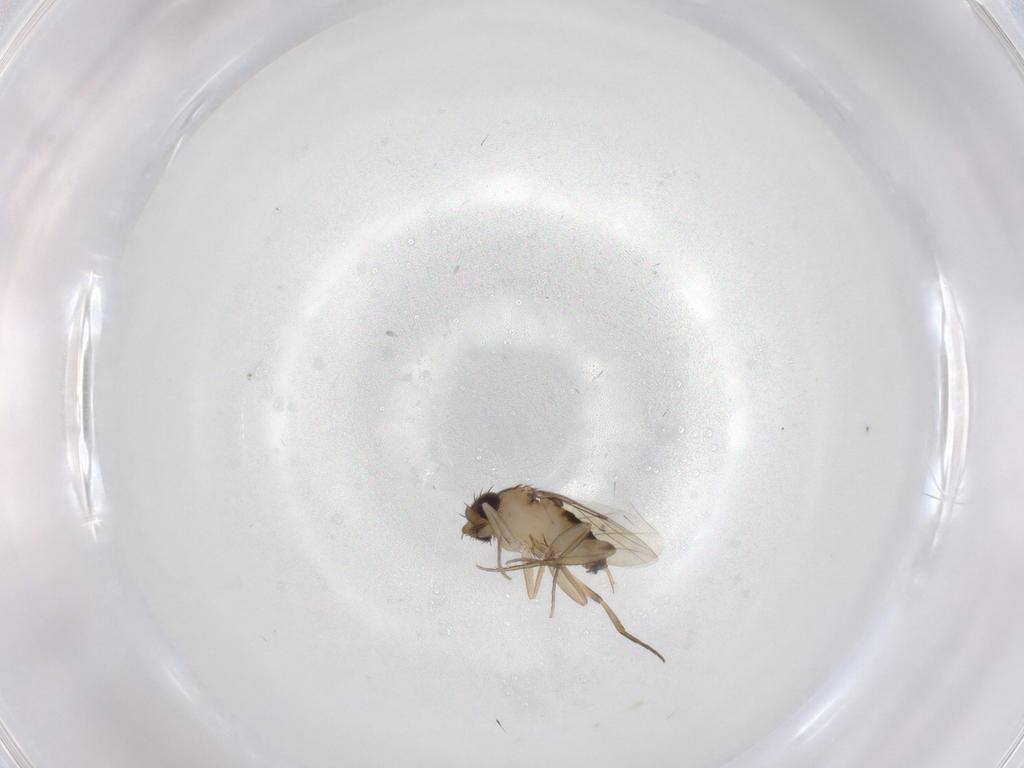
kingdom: Animalia
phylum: Arthropoda
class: Insecta
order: Diptera
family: Phoridae
